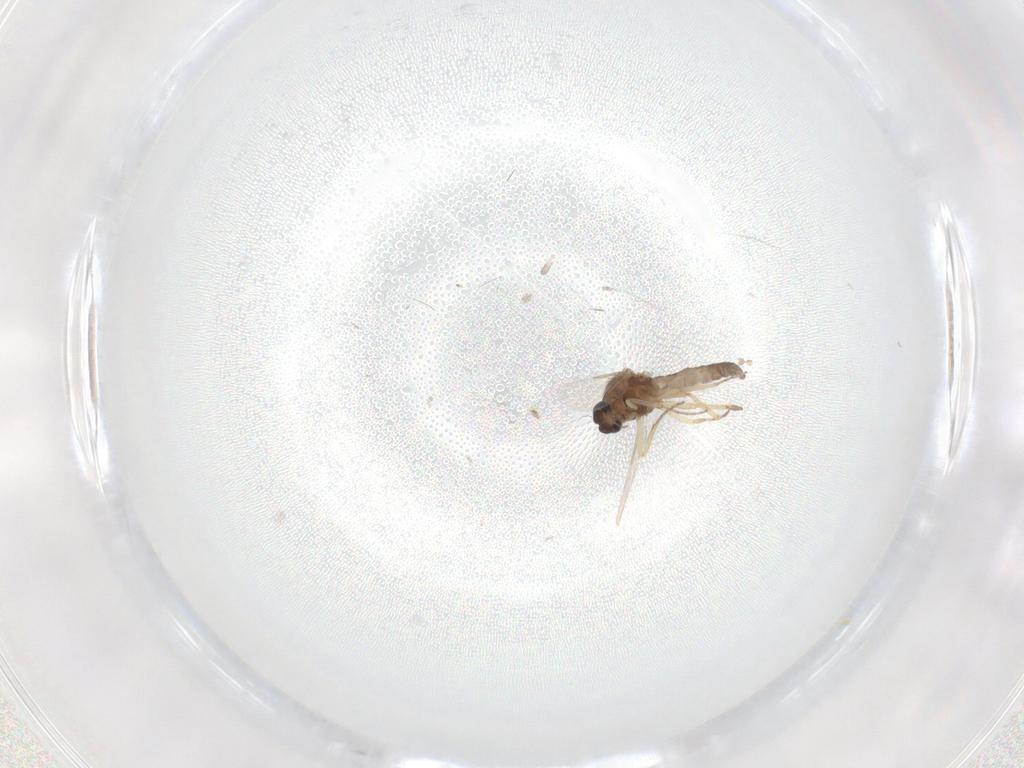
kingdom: Animalia
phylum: Arthropoda
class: Insecta
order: Diptera
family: Ceratopogonidae
